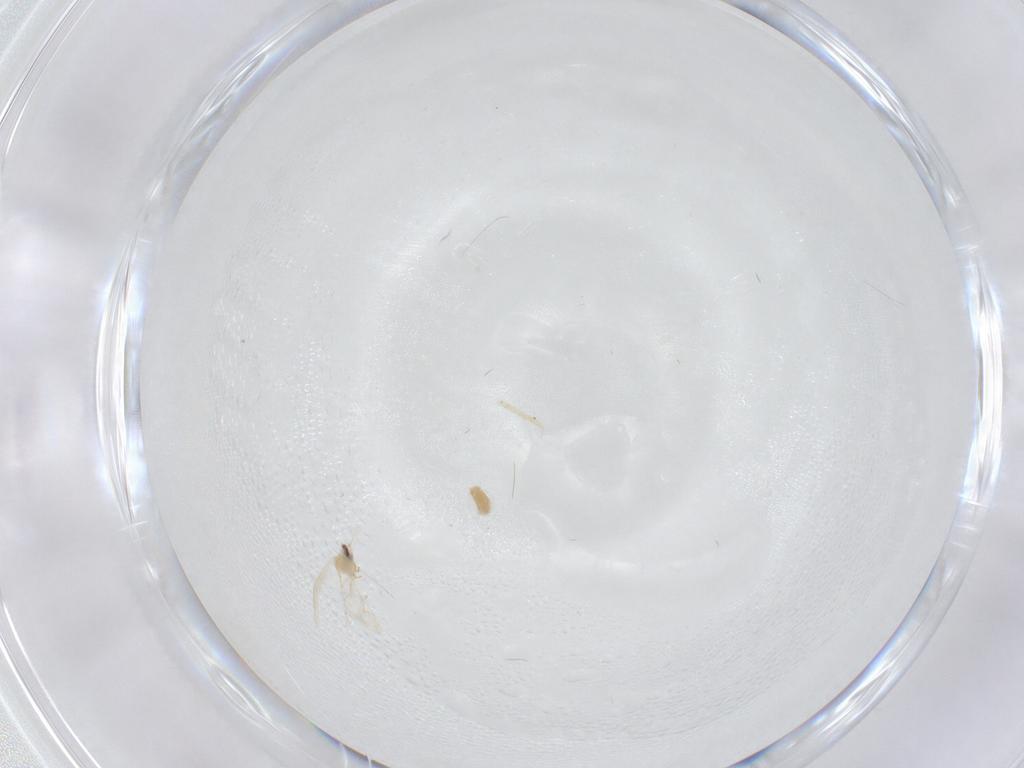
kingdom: Animalia
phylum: Arthropoda
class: Insecta
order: Hemiptera
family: Aleyrodidae
